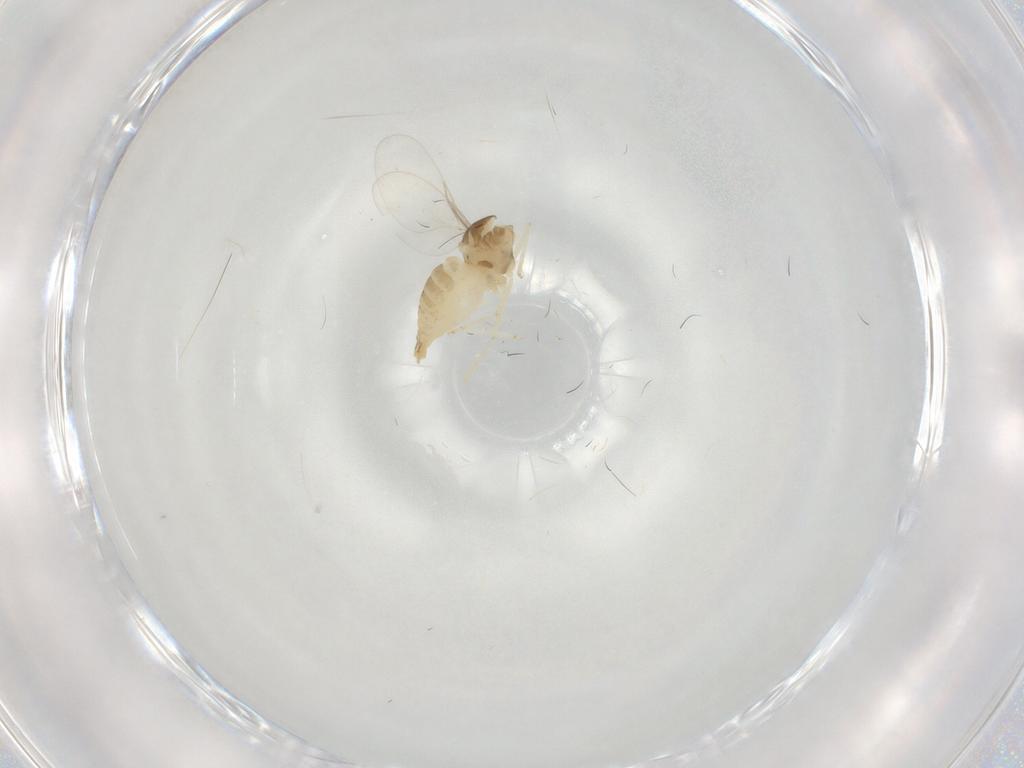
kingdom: Animalia
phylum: Arthropoda
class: Insecta
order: Diptera
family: Cecidomyiidae
